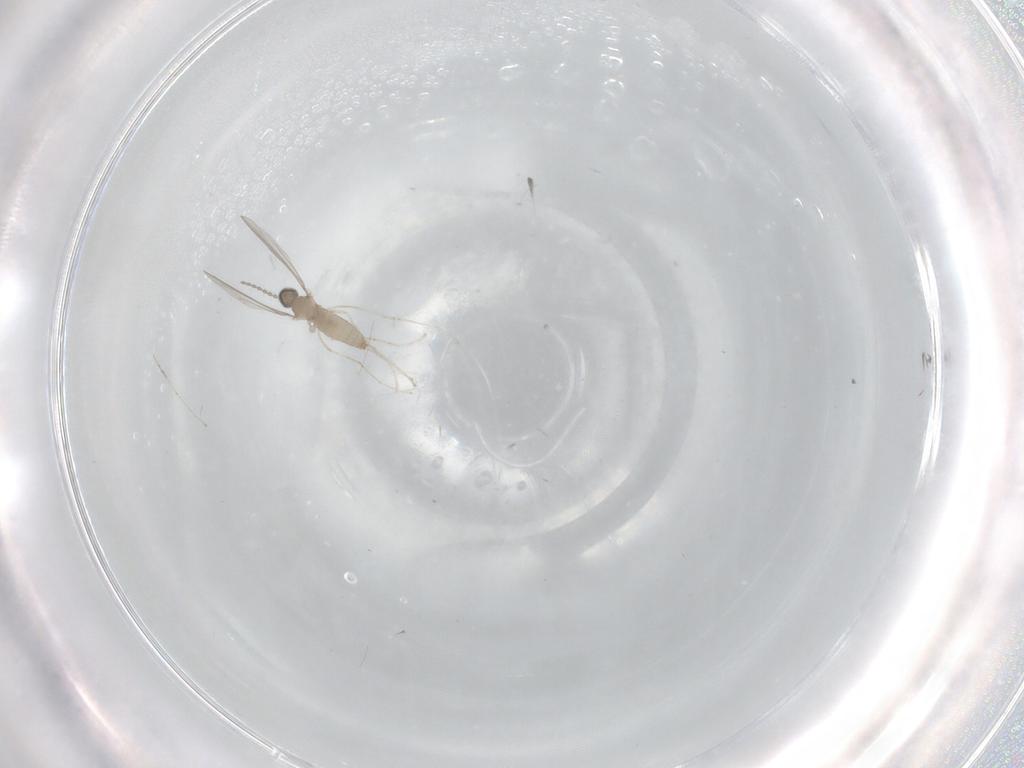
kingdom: Animalia
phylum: Arthropoda
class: Insecta
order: Diptera
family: Cecidomyiidae
